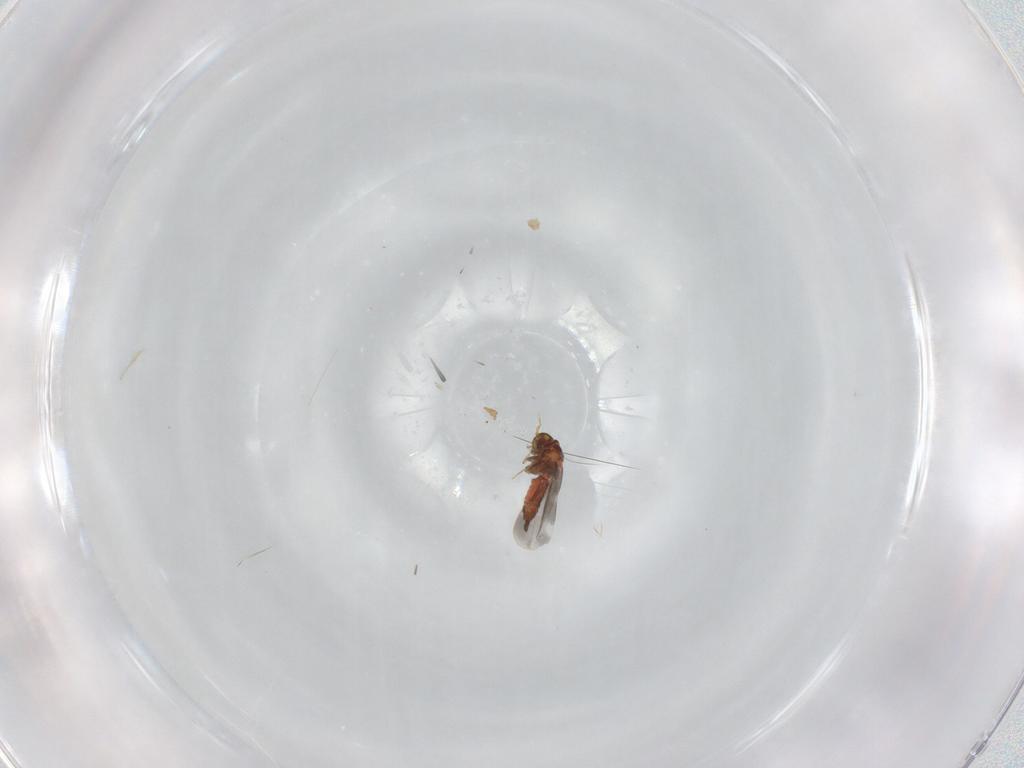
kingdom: Animalia
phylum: Arthropoda
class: Insecta
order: Hemiptera
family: Aleyrodidae
